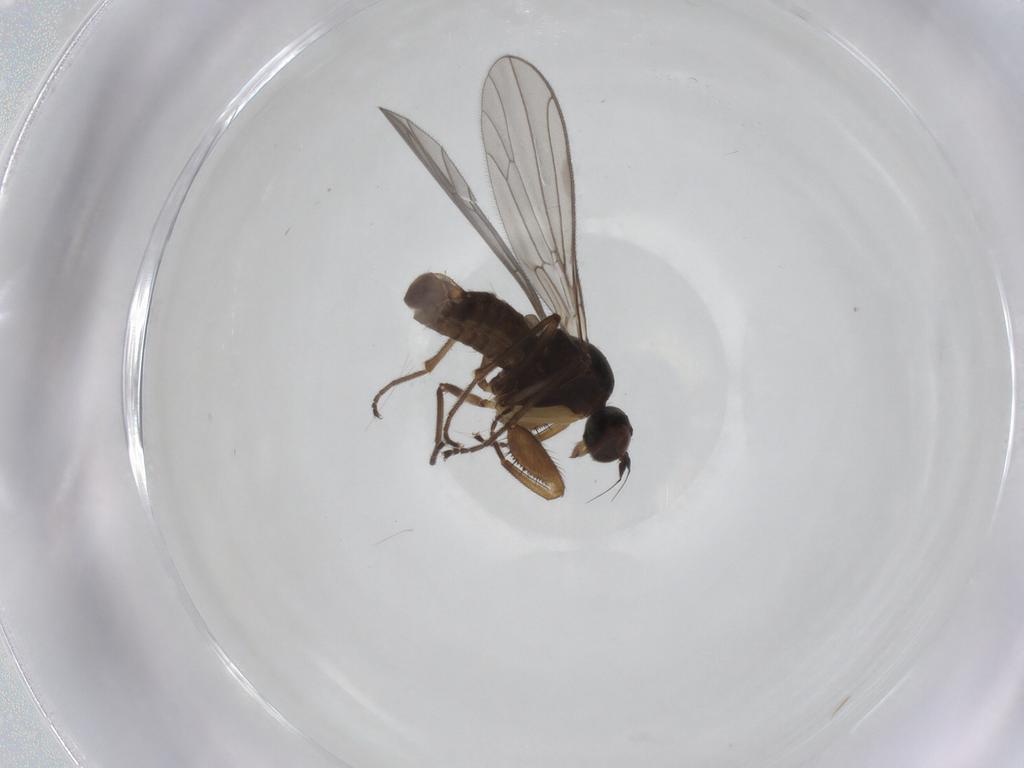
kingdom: Animalia
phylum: Arthropoda
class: Insecta
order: Diptera
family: Empididae
